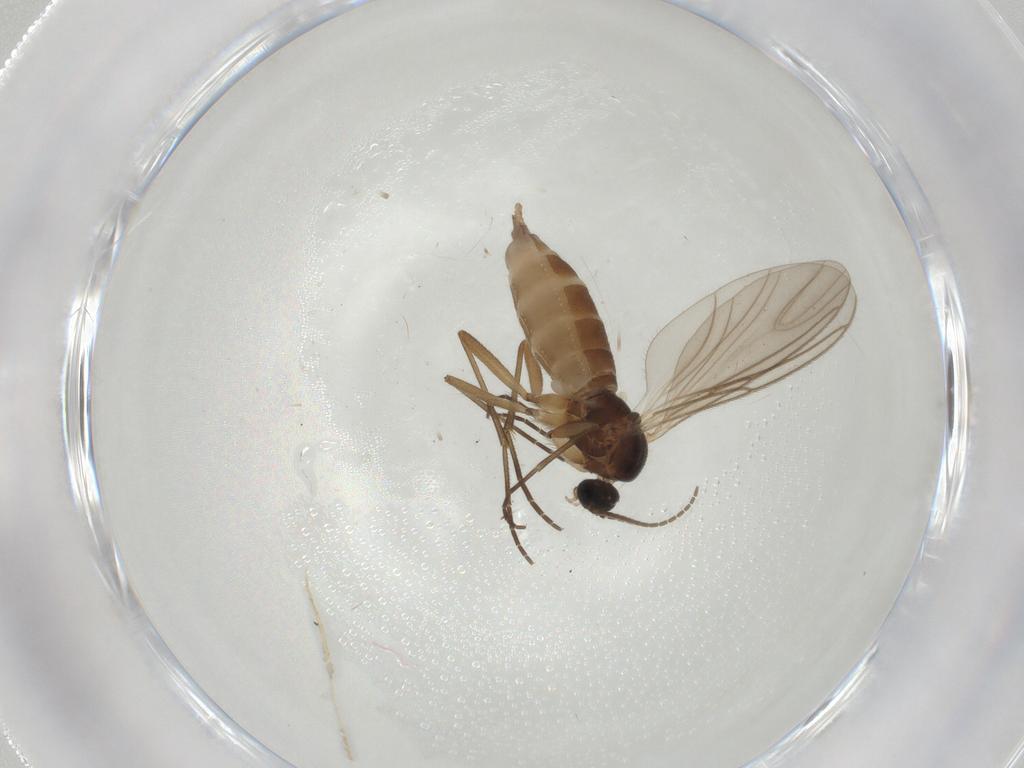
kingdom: Animalia
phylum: Arthropoda
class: Insecta
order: Diptera
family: Sciaridae
